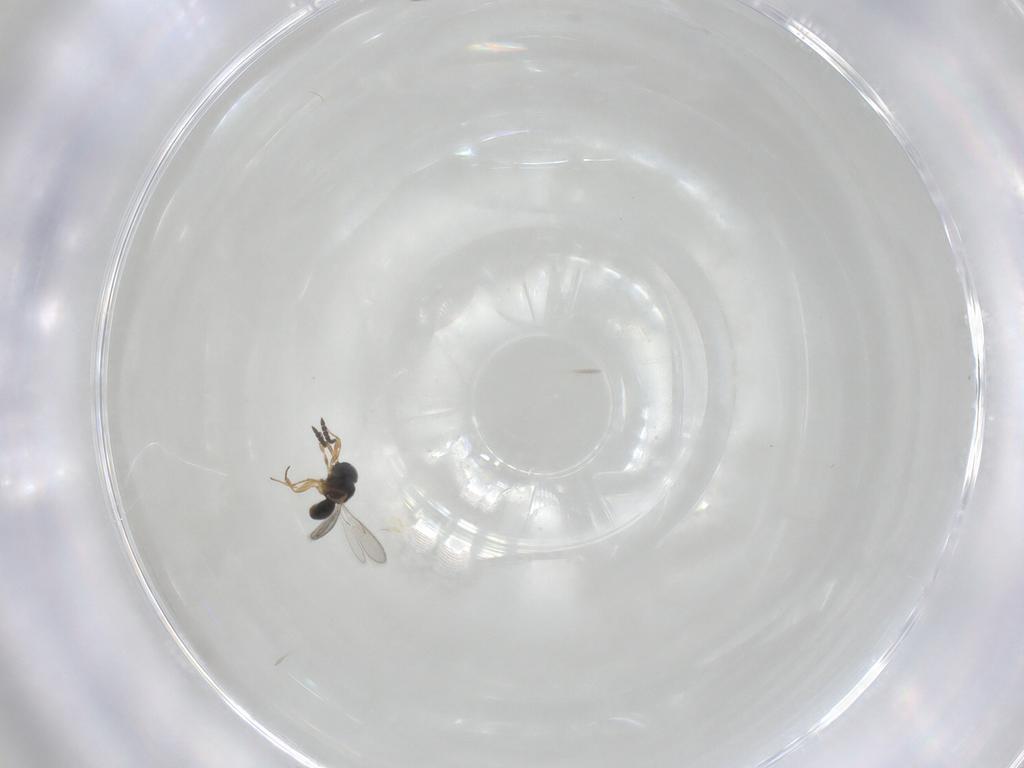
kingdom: Animalia
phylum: Arthropoda
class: Insecta
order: Hymenoptera
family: Scelionidae
